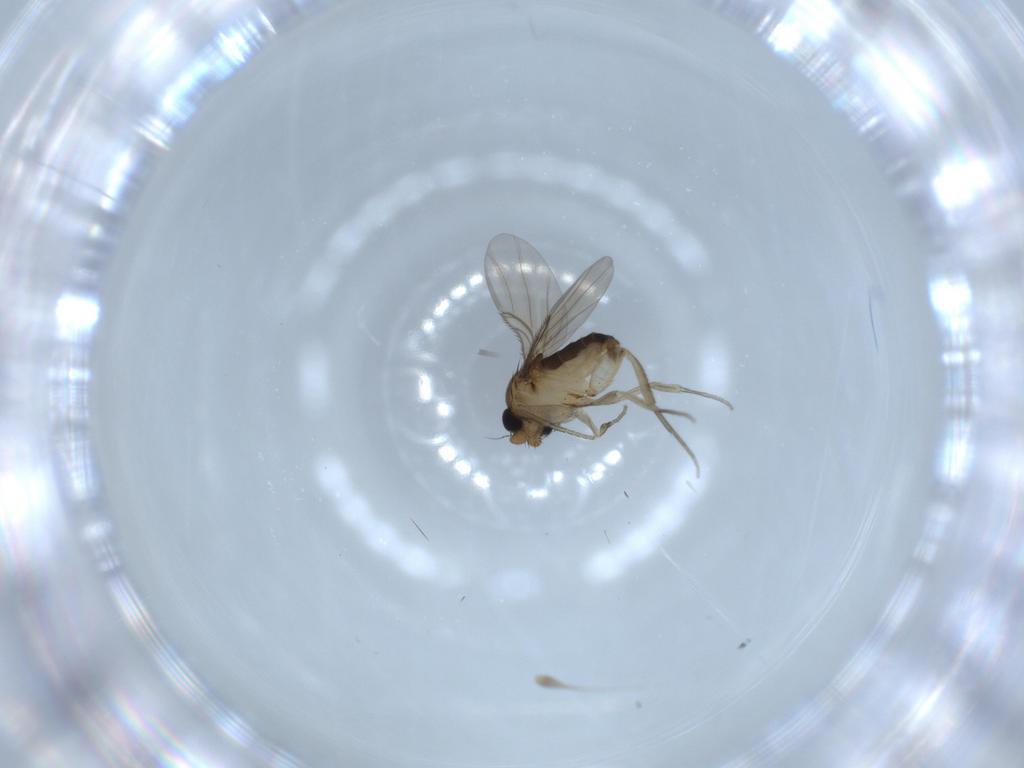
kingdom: Animalia
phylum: Arthropoda
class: Insecta
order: Diptera
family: Phoridae
